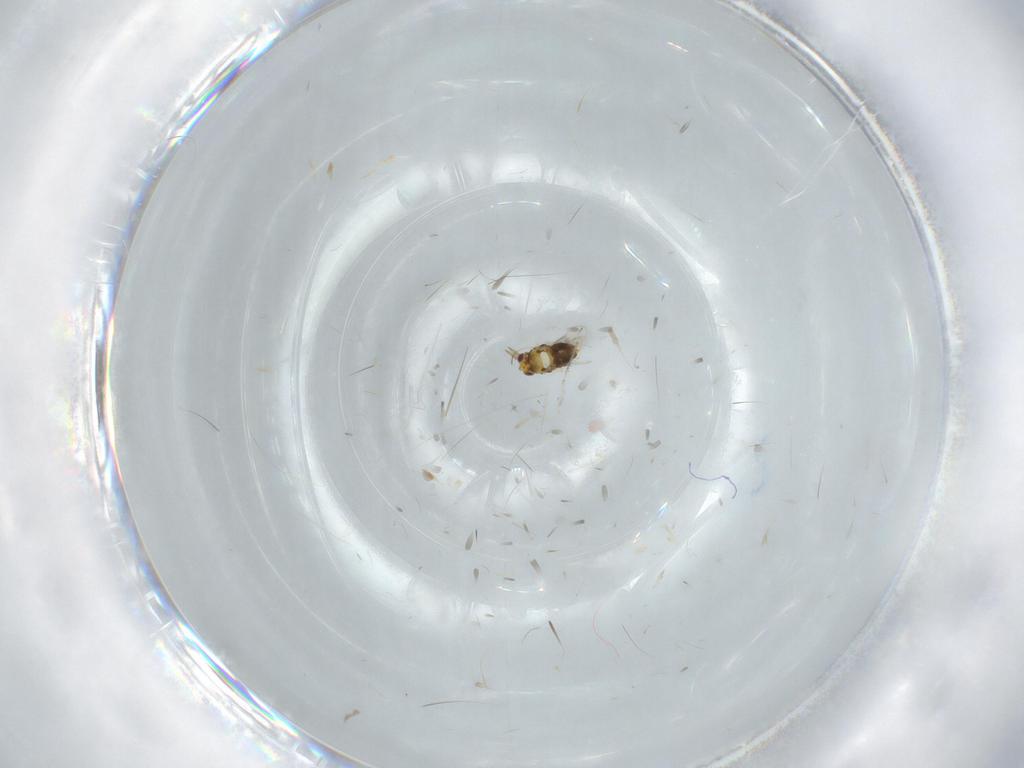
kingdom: Animalia
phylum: Arthropoda
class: Insecta
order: Hymenoptera
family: Aphelinidae
